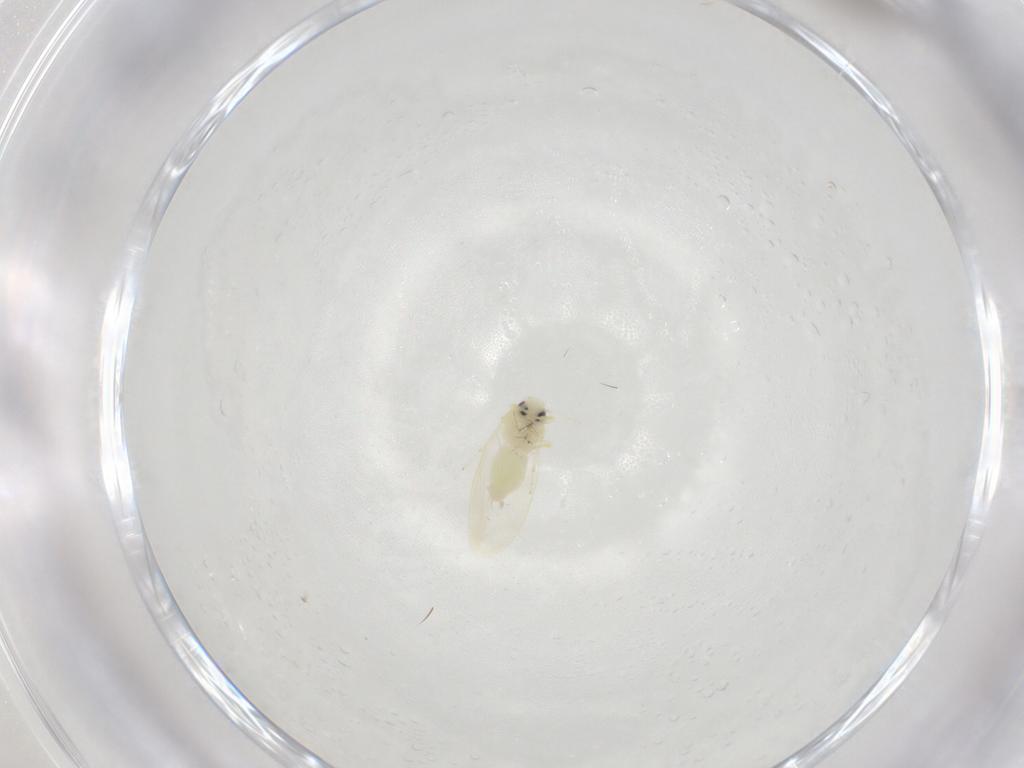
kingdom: Animalia
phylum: Arthropoda
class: Insecta
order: Hemiptera
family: Aleyrodidae
